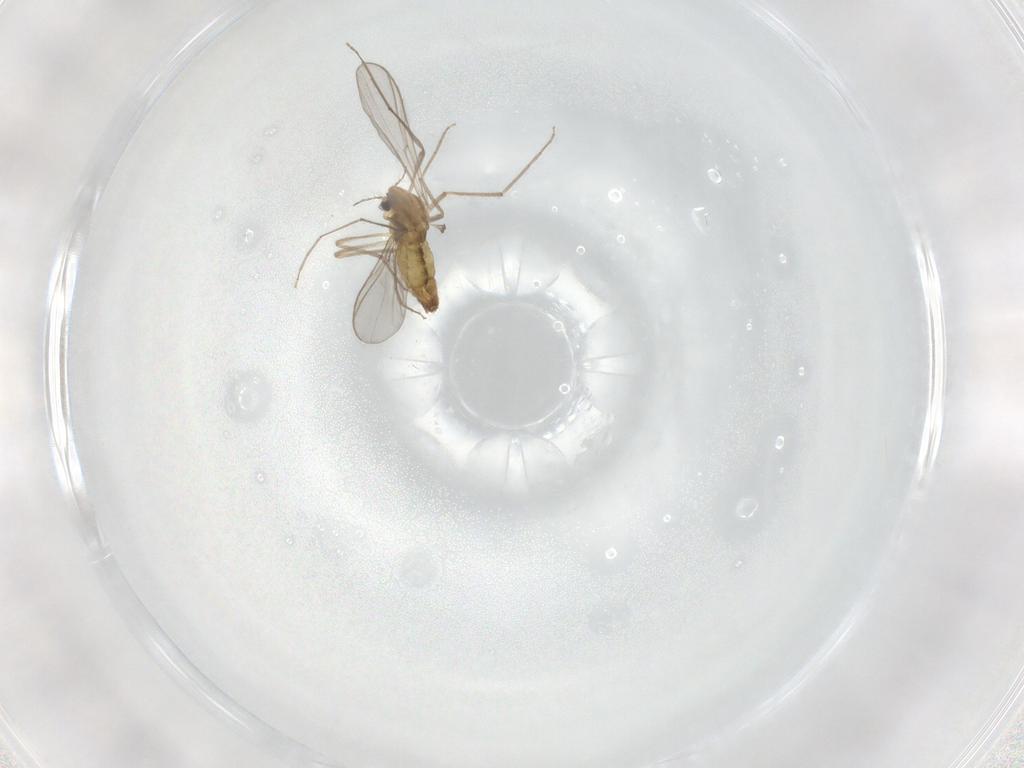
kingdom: Animalia
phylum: Arthropoda
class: Insecta
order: Diptera
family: Chironomidae
